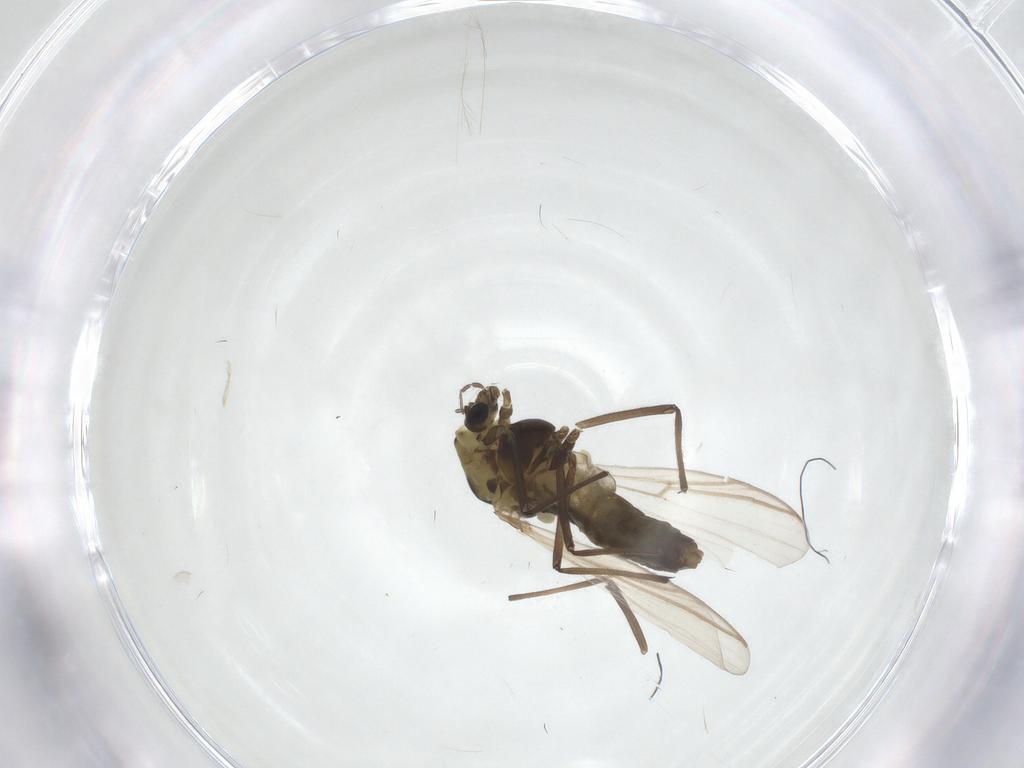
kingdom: Animalia
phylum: Arthropoda
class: Insecta
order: Diptera
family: Chironomidae
